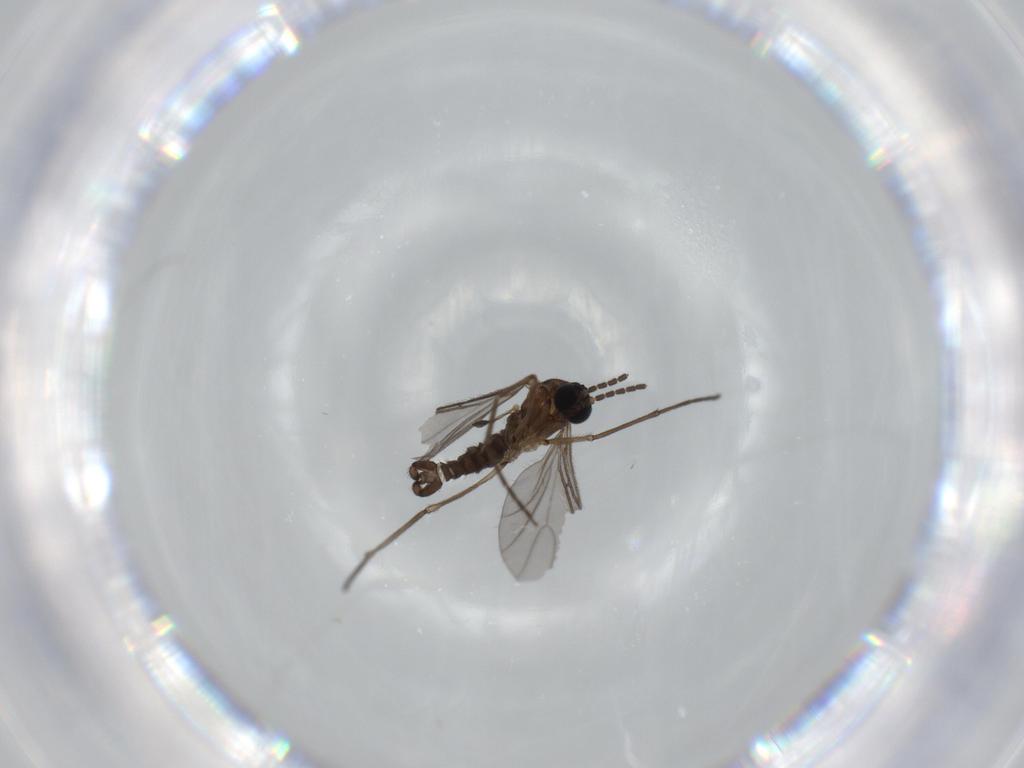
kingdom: Animalia
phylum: Arthropoda
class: Insecta
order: Diptera
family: Sciaridae
